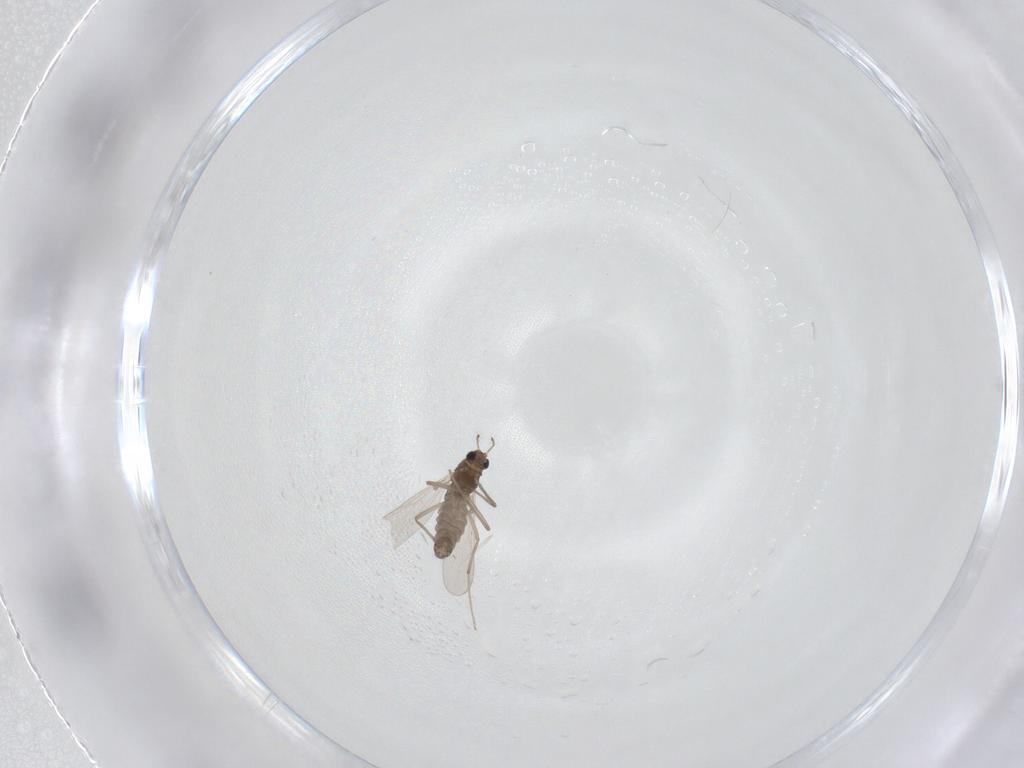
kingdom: Animalia
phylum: Arthropoda
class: Insecta
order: Diptera
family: Chironomidae
